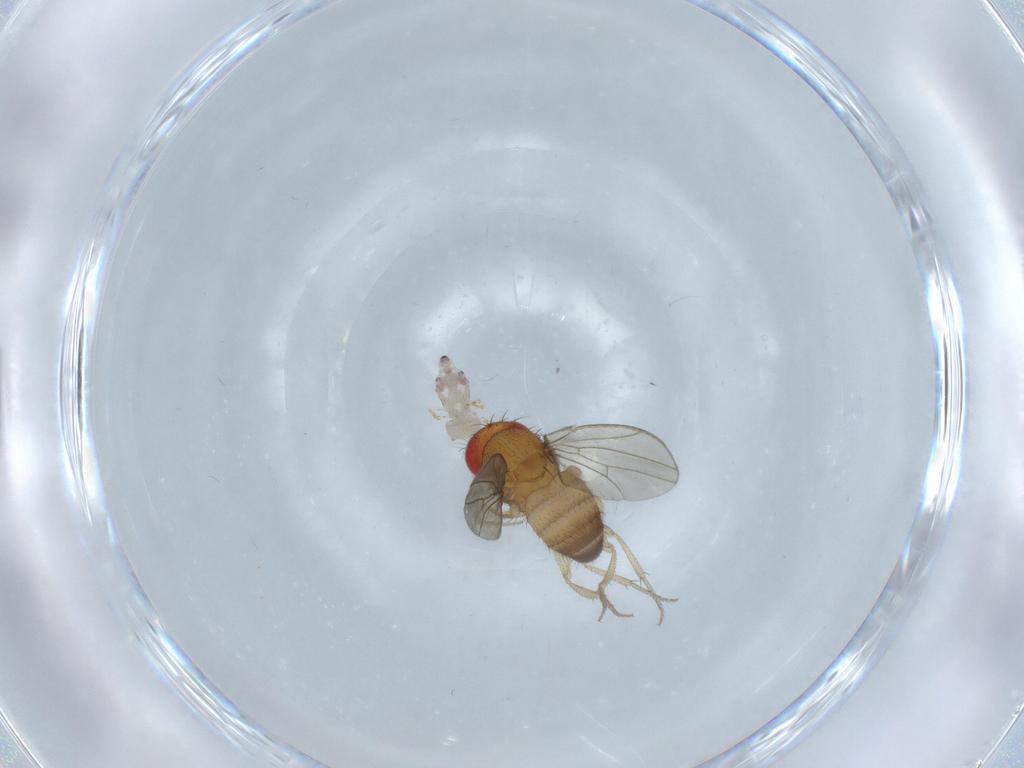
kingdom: Animalia
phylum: Arthropoda
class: Insecta
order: Diptera
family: Drosophilidae
